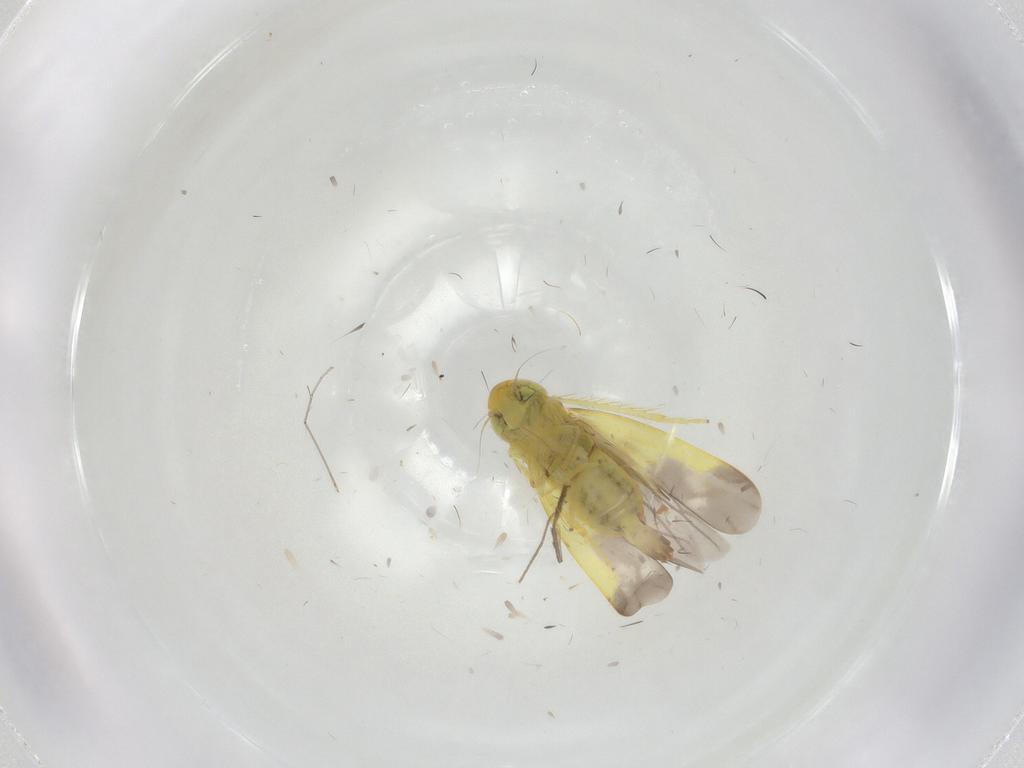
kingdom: Animalia
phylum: Arthropoda
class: Insecta
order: Hemiptera
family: Cicadellidae
